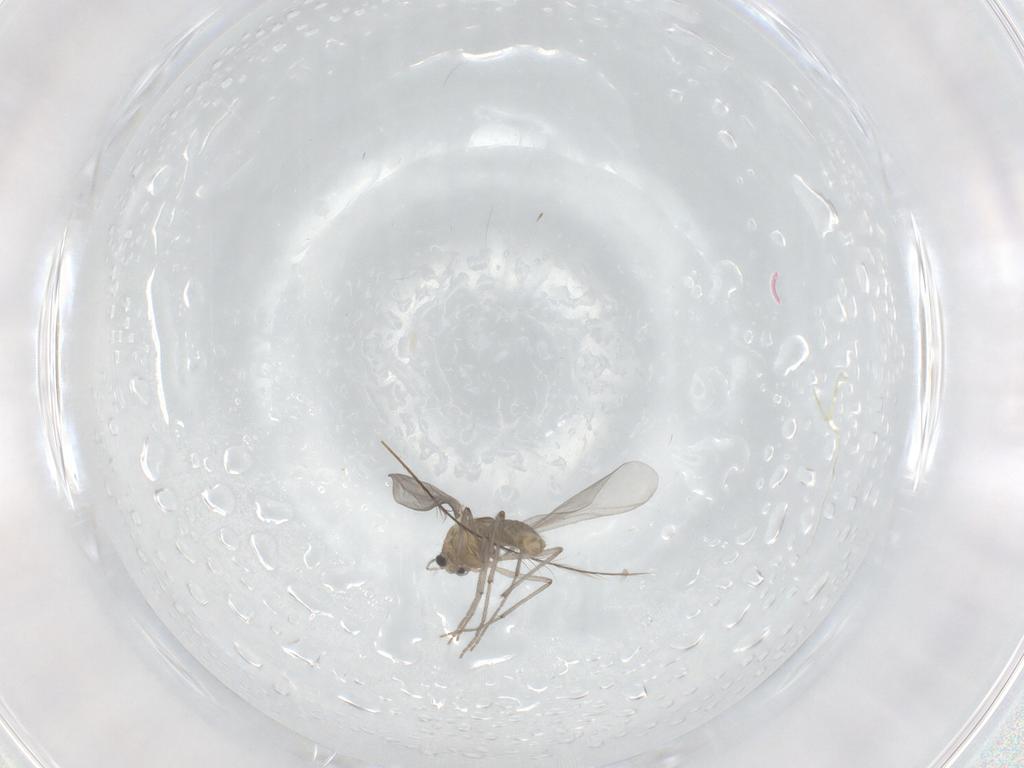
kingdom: Animalia
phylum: Arthropoda
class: Insecta
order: Diptera
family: Chironomidae
